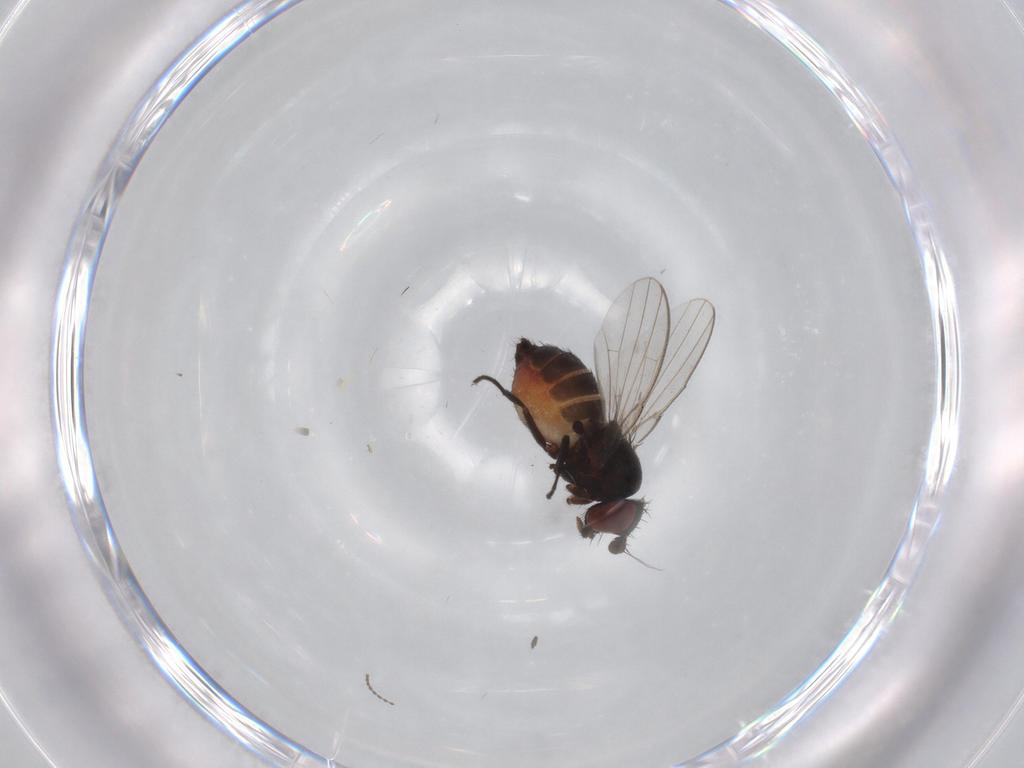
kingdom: Animalia
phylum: Arthropoda
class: Insecta
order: Diptera
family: Milichiidae
